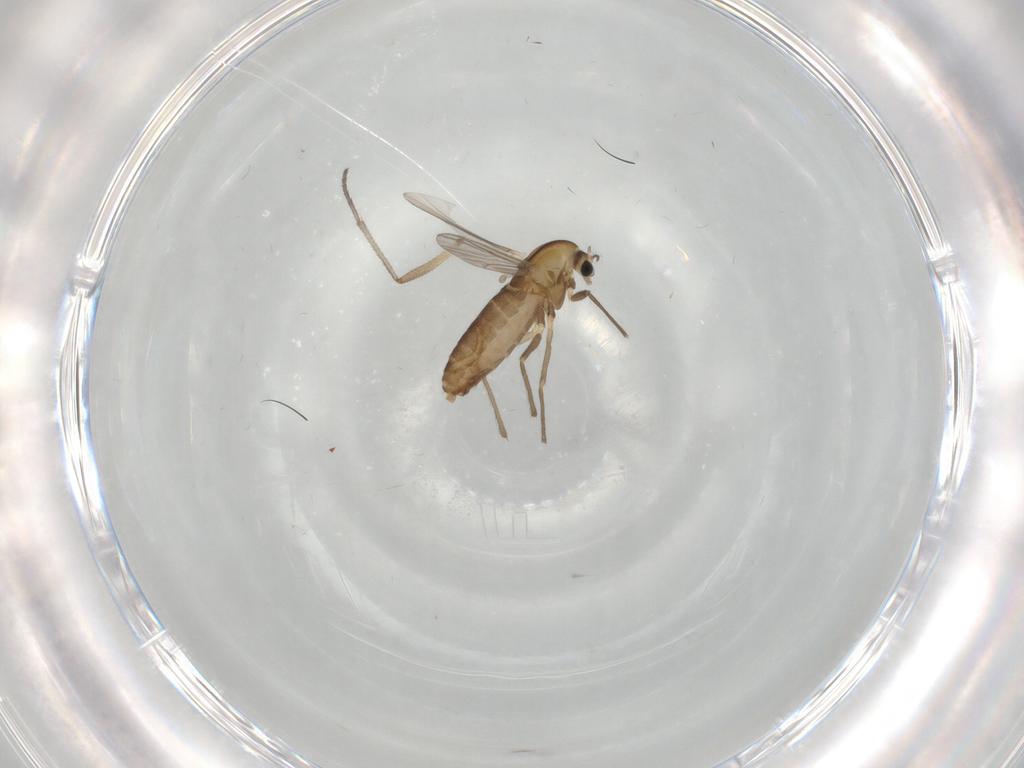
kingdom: Animalia
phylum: Arthropoda
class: Insecta
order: Diptera
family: Chironomidae
